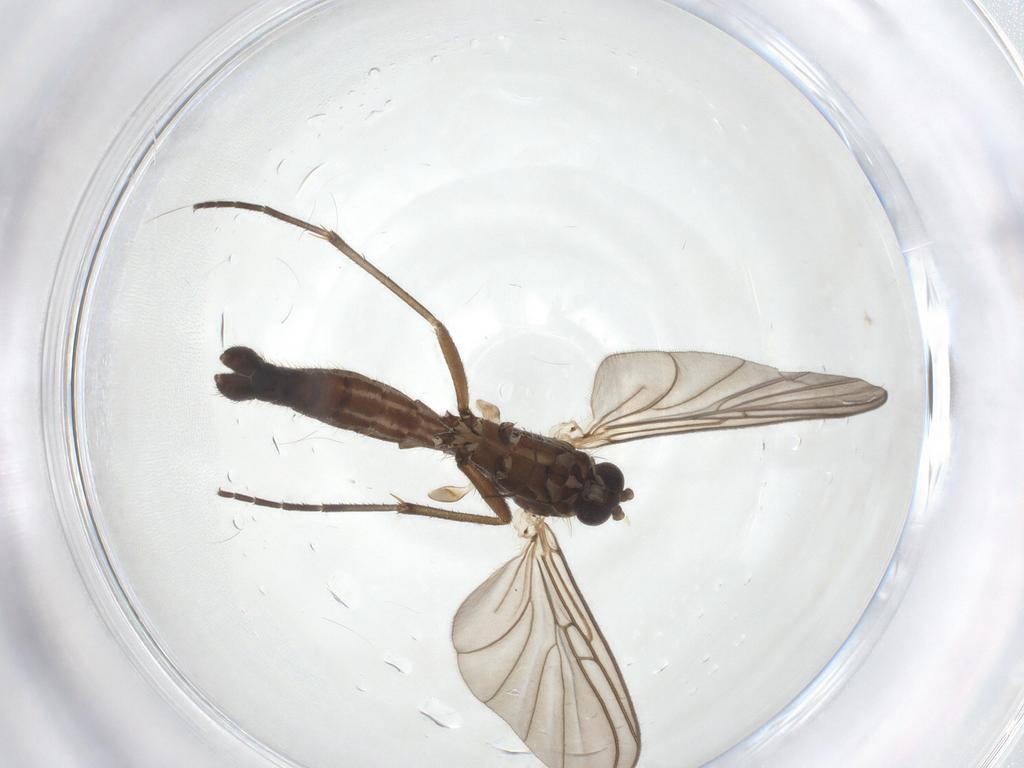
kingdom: Animalia
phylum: Arthropoda
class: Insecta
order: Diptera
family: Mycetophilidae
